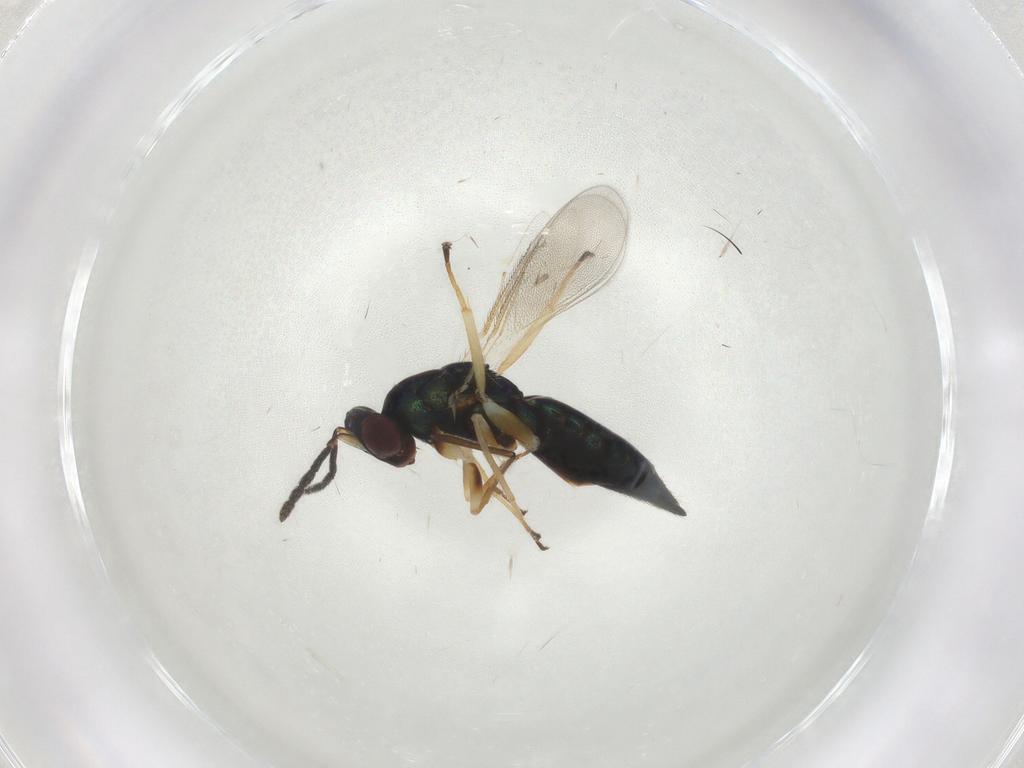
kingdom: Animalia
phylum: Arthropoda
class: Insecta
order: Hymenoptera
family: Eulophidae
